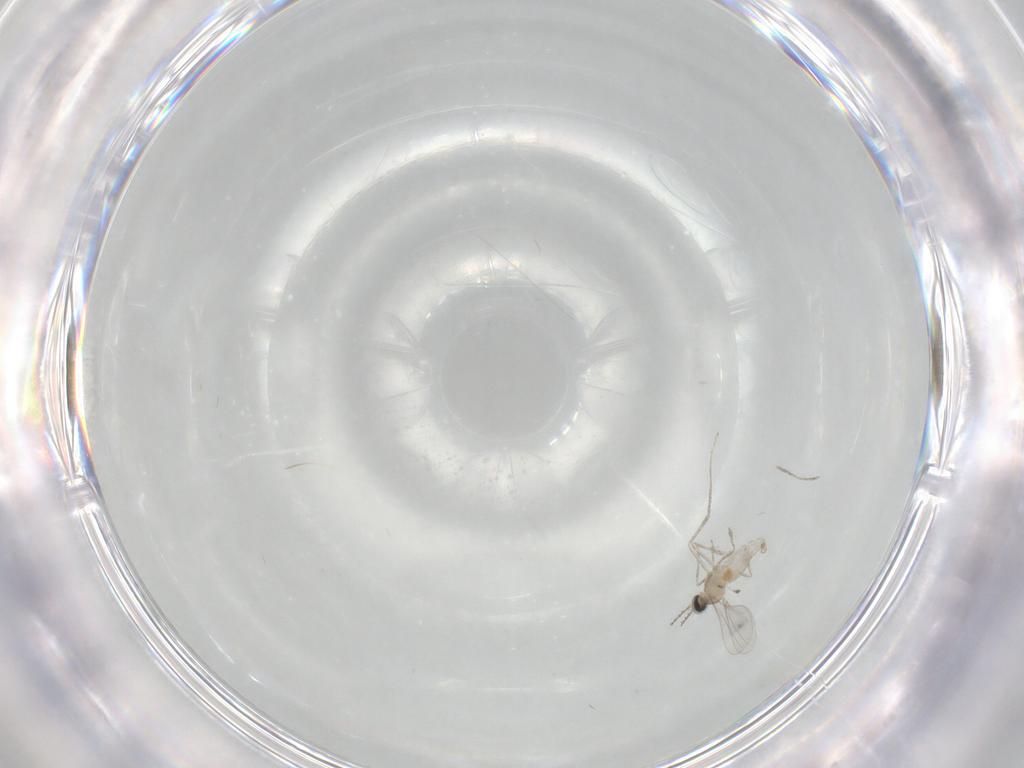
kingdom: Animalia
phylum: Arthropoda
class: Insecta
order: Diptera
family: Cecidomyiidae
